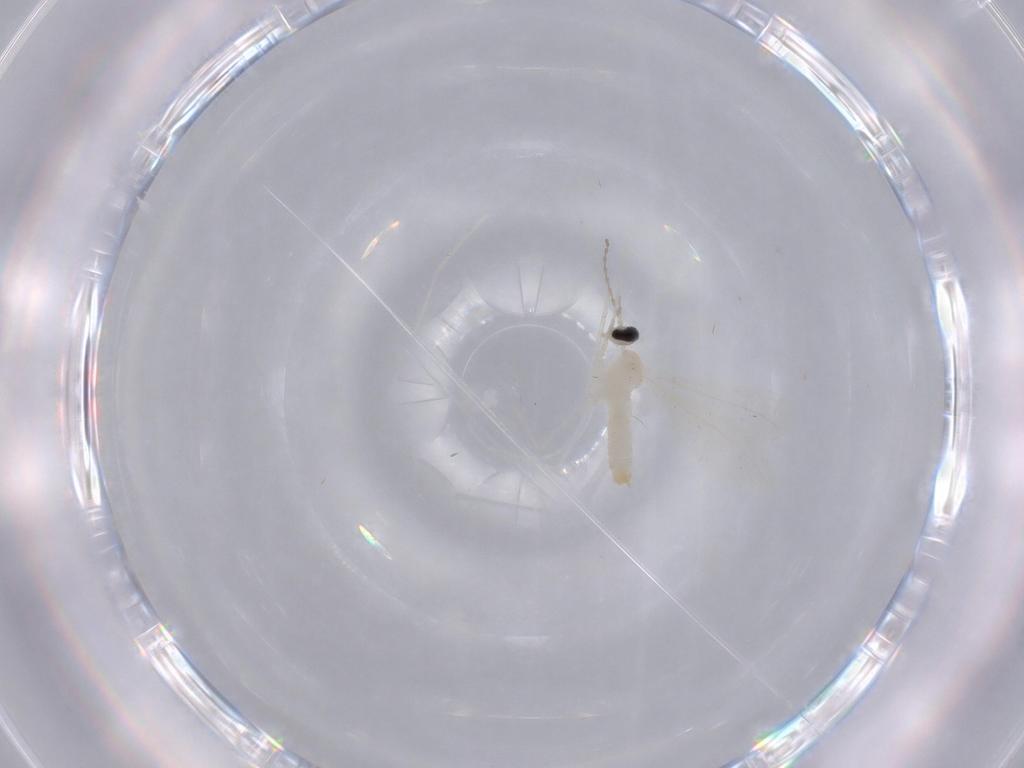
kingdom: Animalia
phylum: Arthropoda
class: Insecta
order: Diptera
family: Cecidomyiidae
